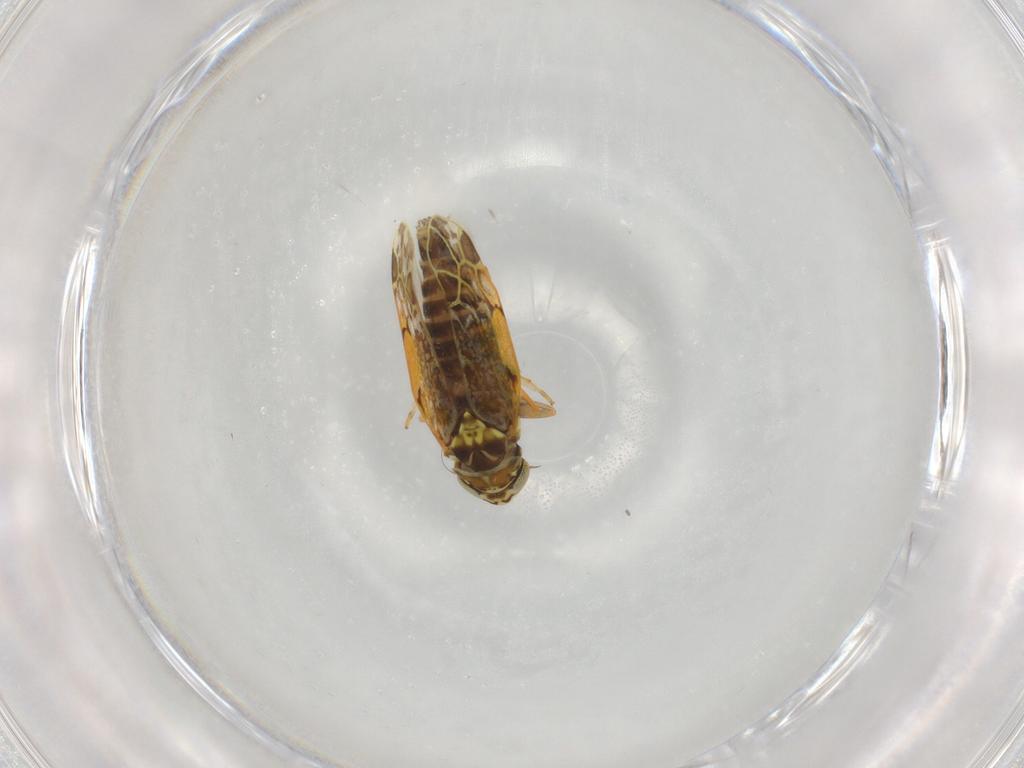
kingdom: Animalia
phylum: Arthropoda
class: Insecta
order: Hemiptera
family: Cicadellidae
